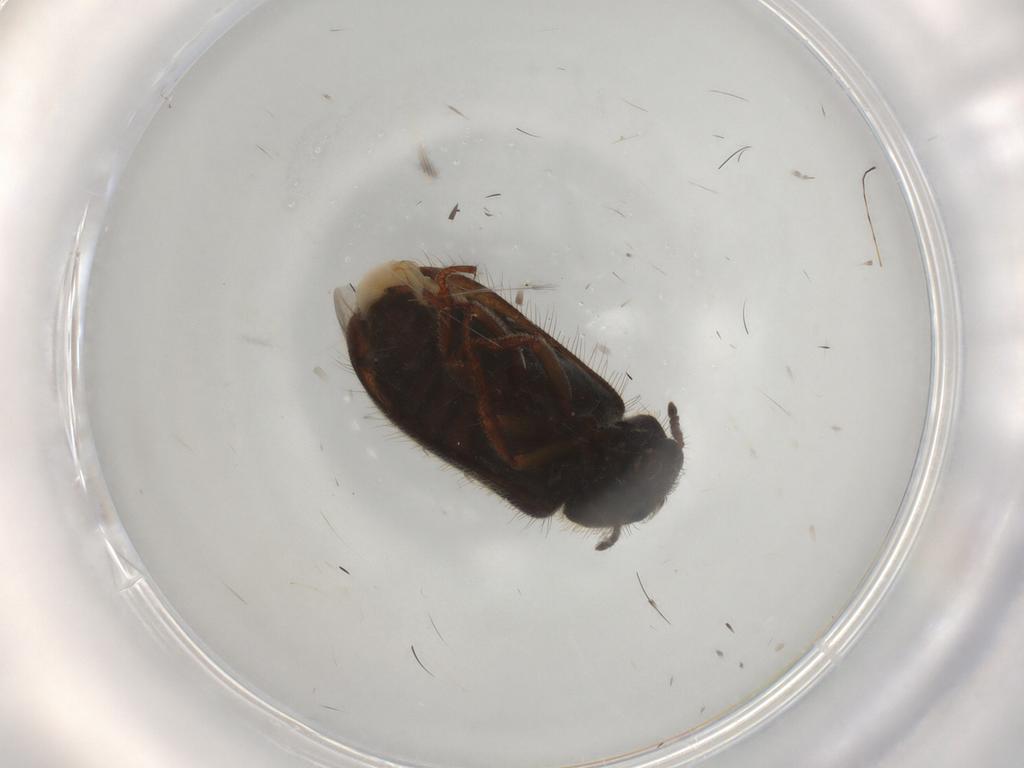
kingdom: Animalia
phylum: Arthropoda
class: Insecta
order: Coleoptera
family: Melyridae
